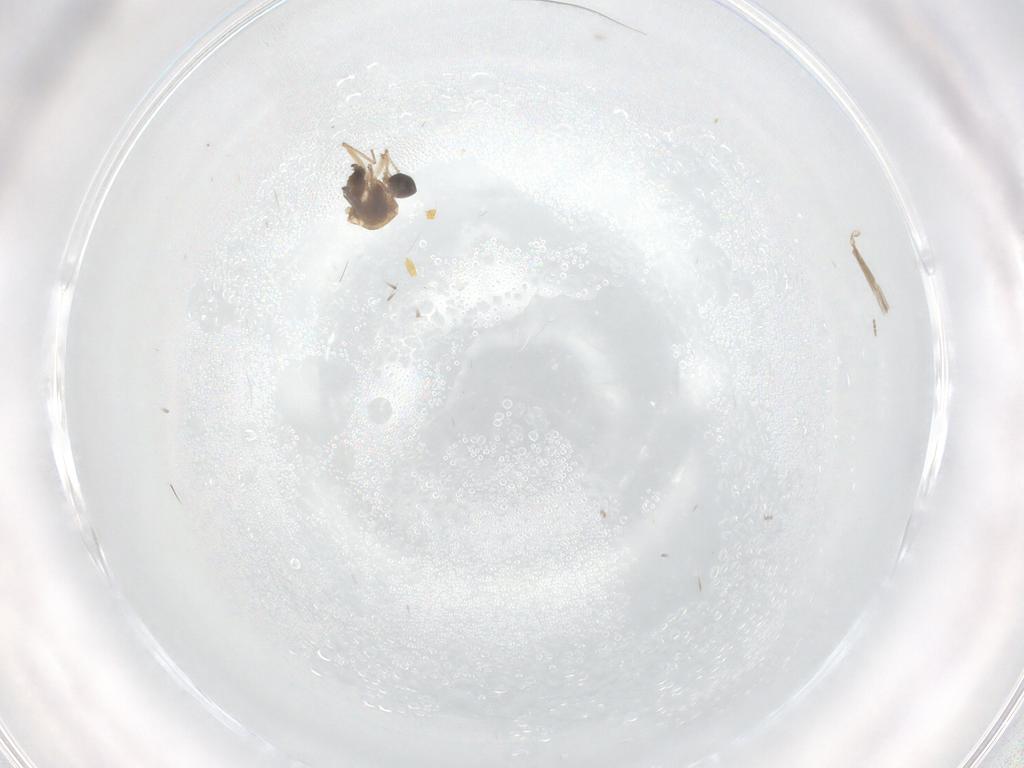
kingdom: Animalia
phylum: Arthropoda
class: Insecta
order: Diptera
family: Dolichopodidae
